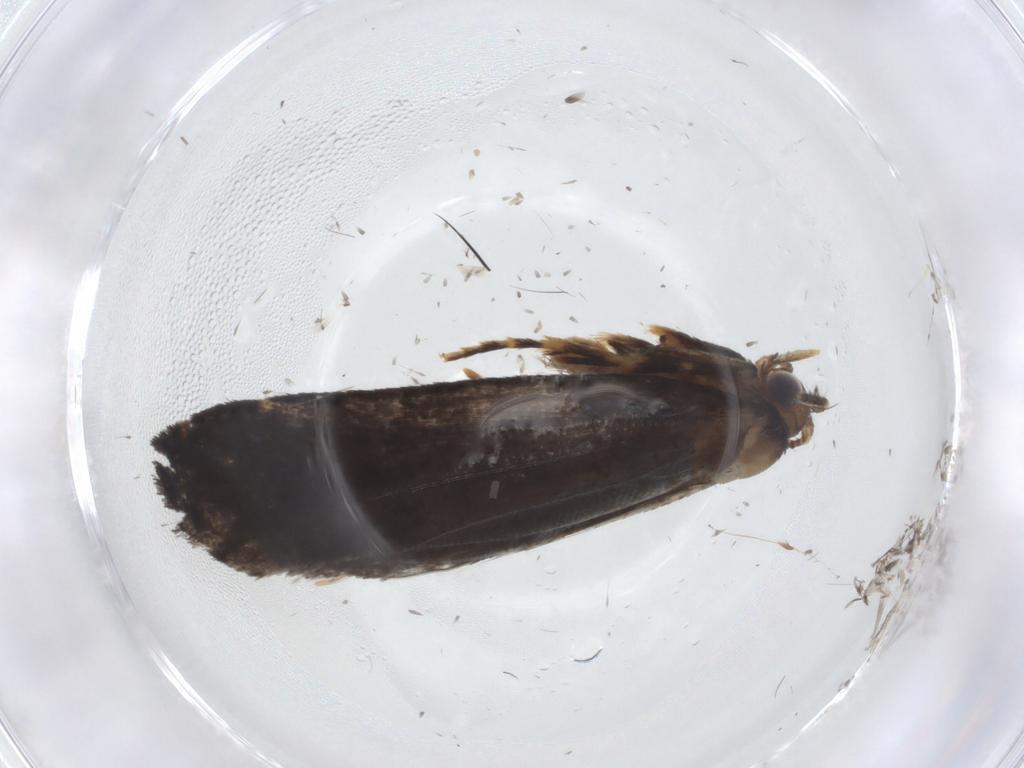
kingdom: Animalia
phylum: Arthropoda
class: Insecta
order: Lepidoptera
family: Tineidae
